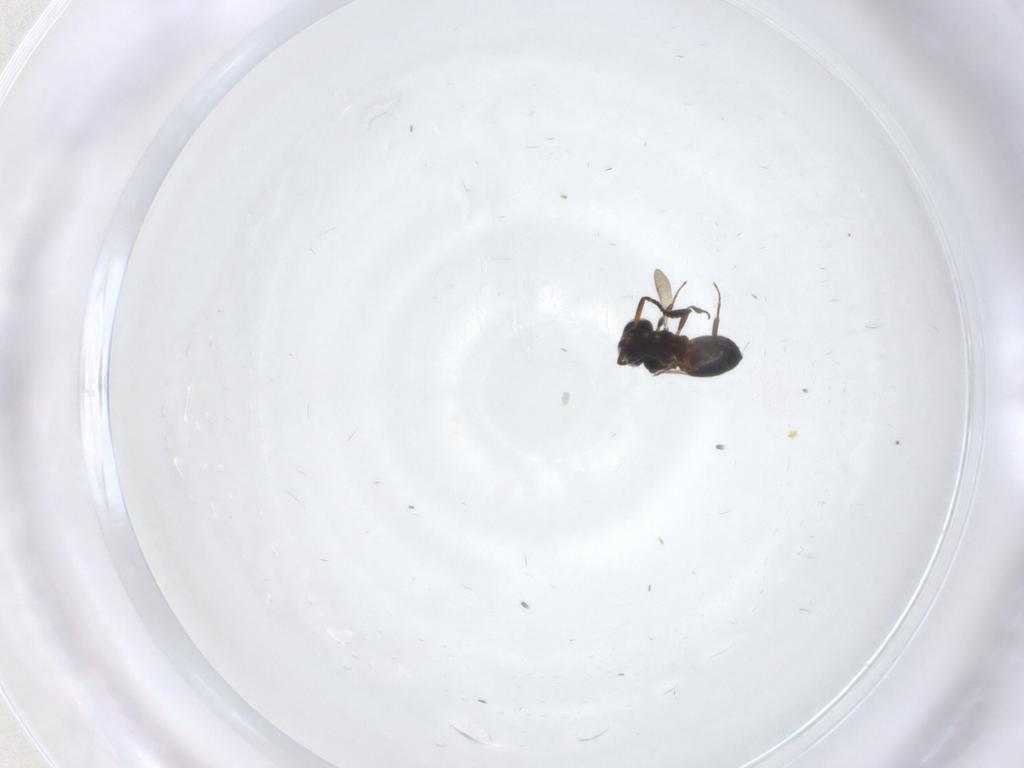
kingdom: Animalia
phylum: Arthropoda
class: Insecta
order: Hymenoptera
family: Scelionidae
